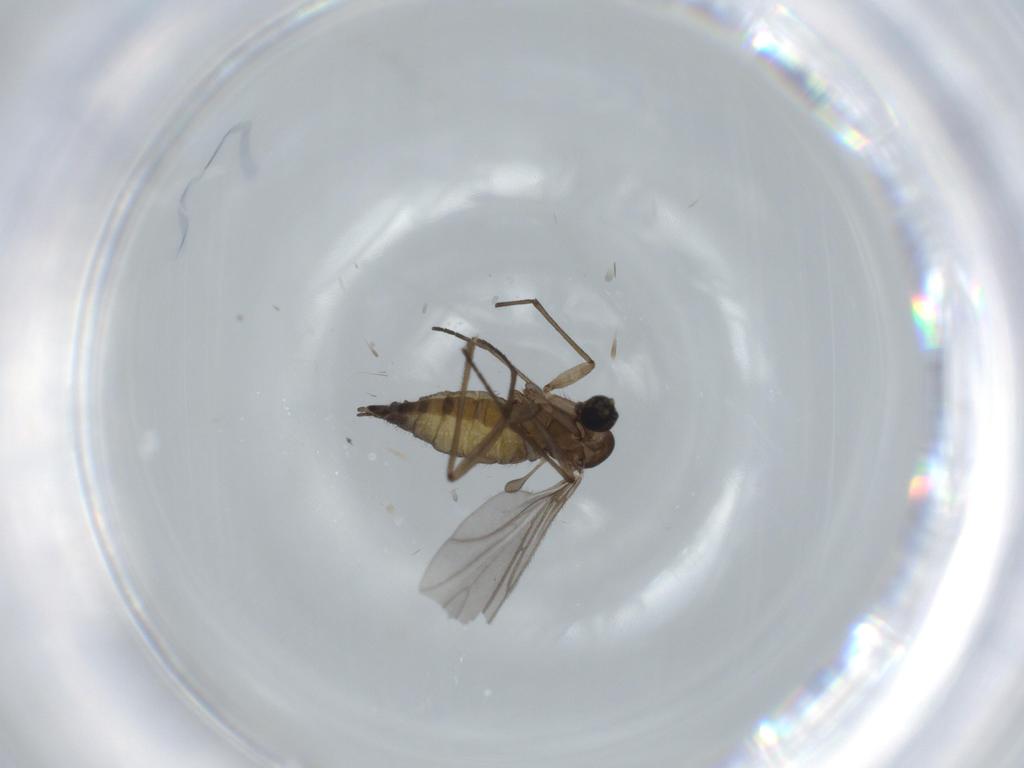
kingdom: Animalia
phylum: Arthropoda
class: Insecta
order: Diptera
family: Sciaridae
